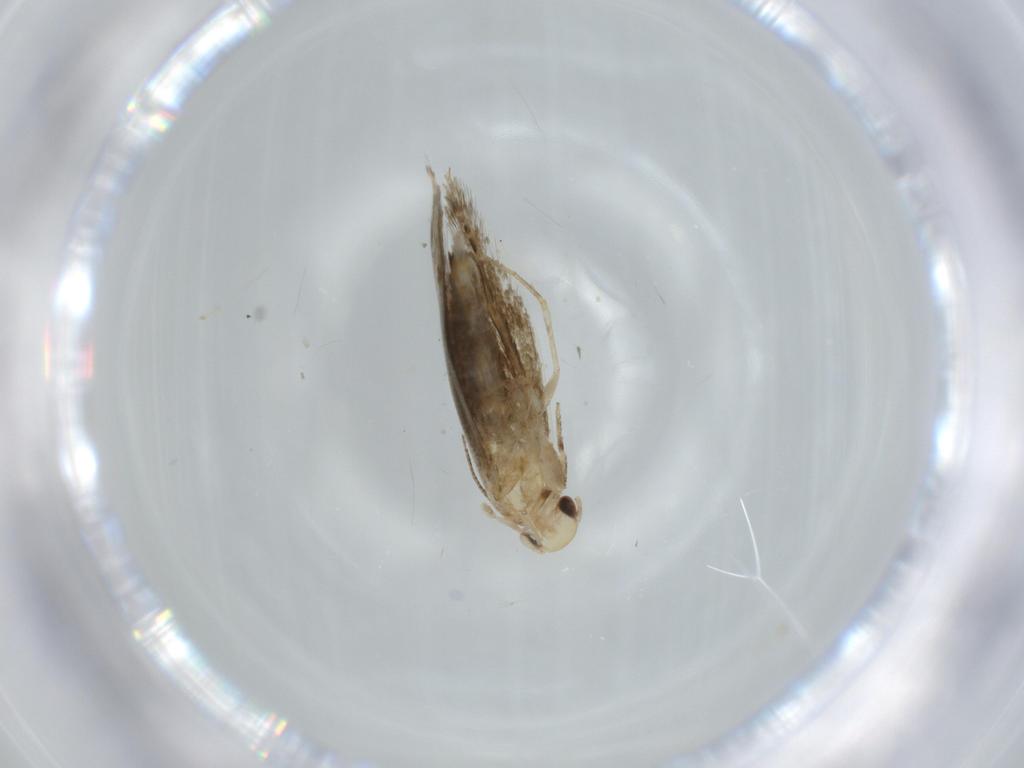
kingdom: Animalia
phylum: Arthropoda
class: Insecta
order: Lepidoptera
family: Tineidae
